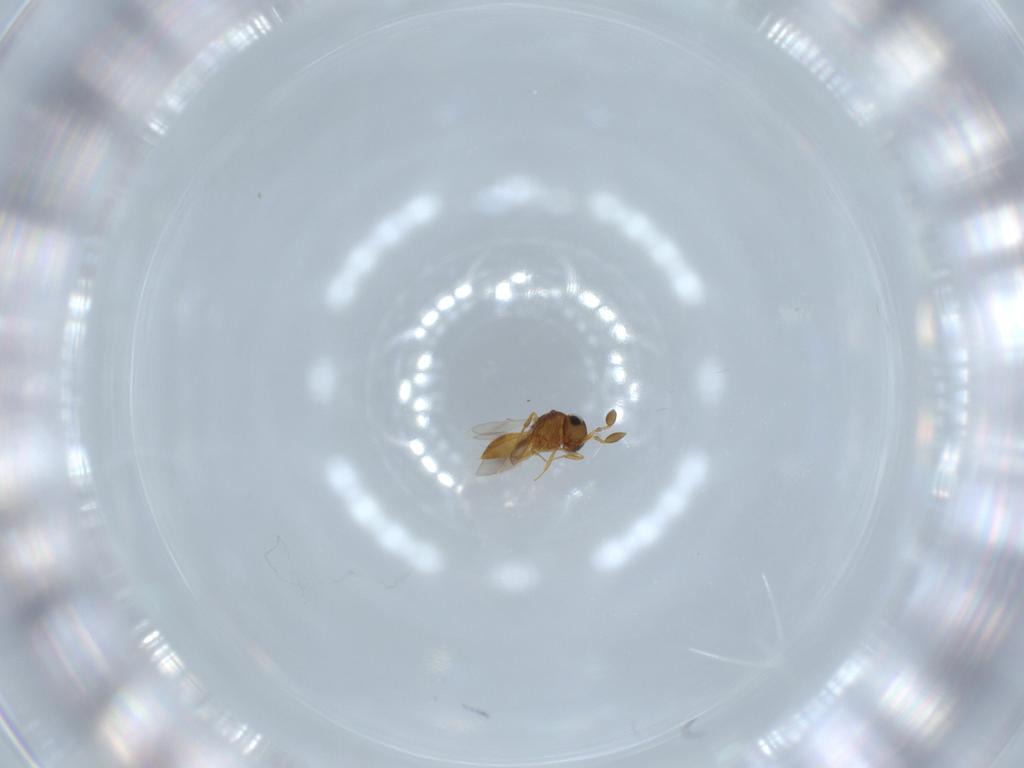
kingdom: Animalia
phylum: Arthropoda
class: Insecta
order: Hymenoptera
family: Scelionidae
